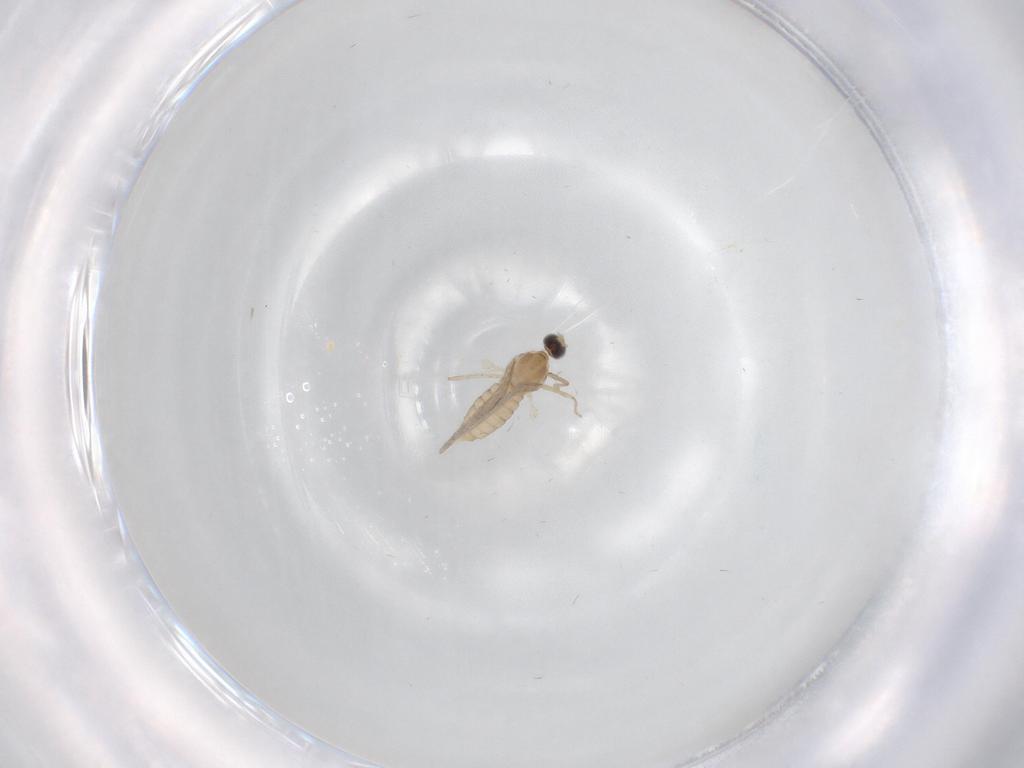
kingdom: Animalia
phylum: Arthropoda
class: Insecta
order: Diptera
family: Cecidomyiidae
